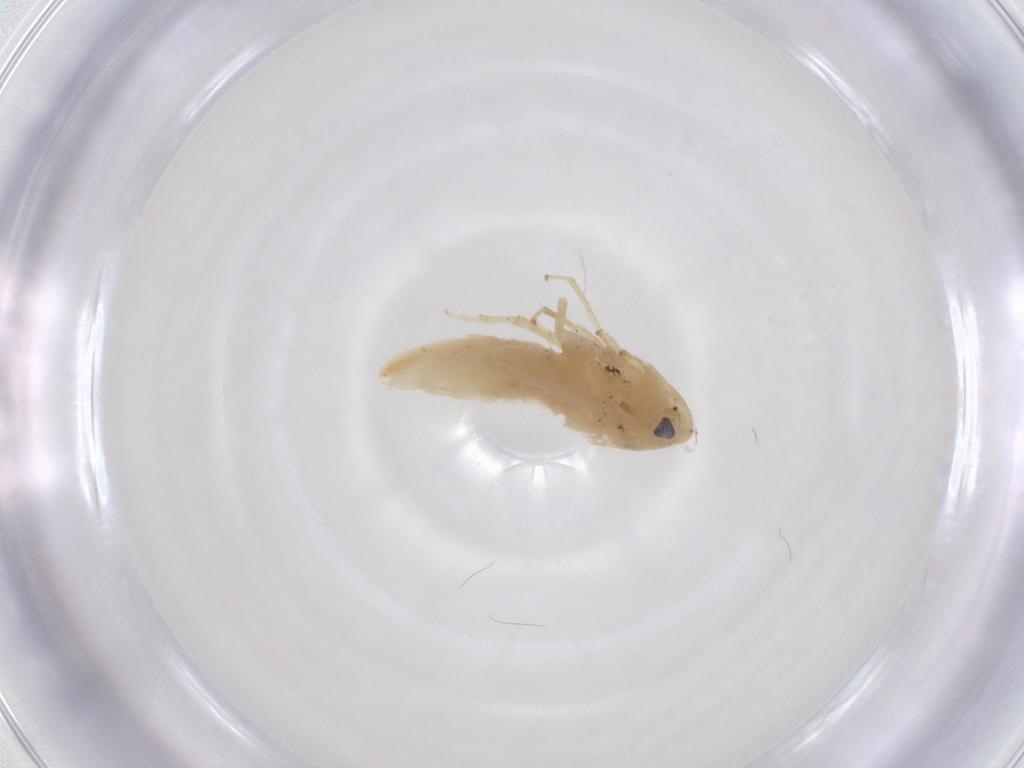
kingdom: Animalia
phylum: Arthropoda
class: Insecta
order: Hemiptera
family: Cicadellidae
